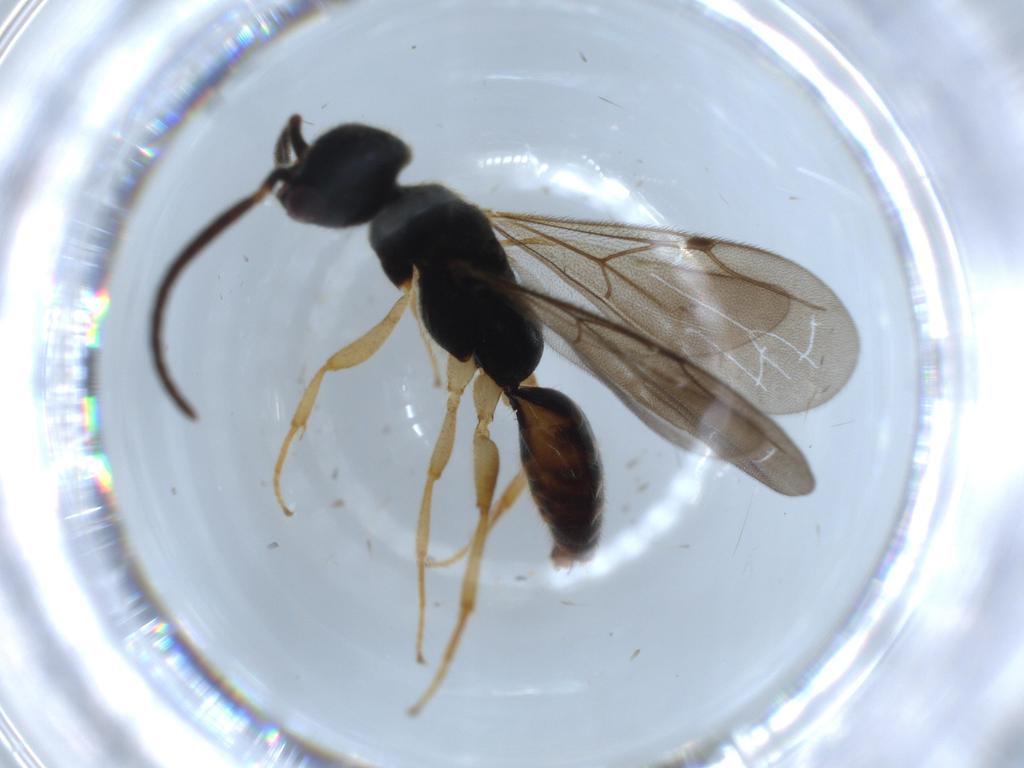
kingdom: Animalia
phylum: Arthropoda
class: Insecta
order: Hymenoptera
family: Bethylidae
